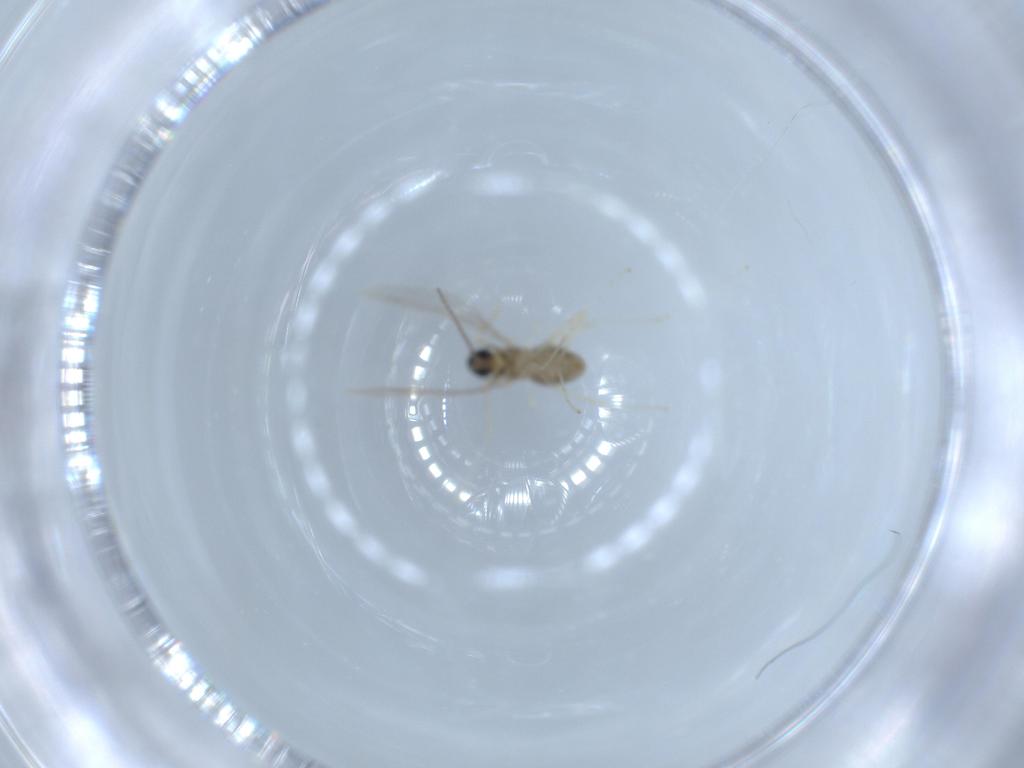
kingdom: Animalia
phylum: Arthropoda
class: Insecta
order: Diptera
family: Cecidomyiidae
